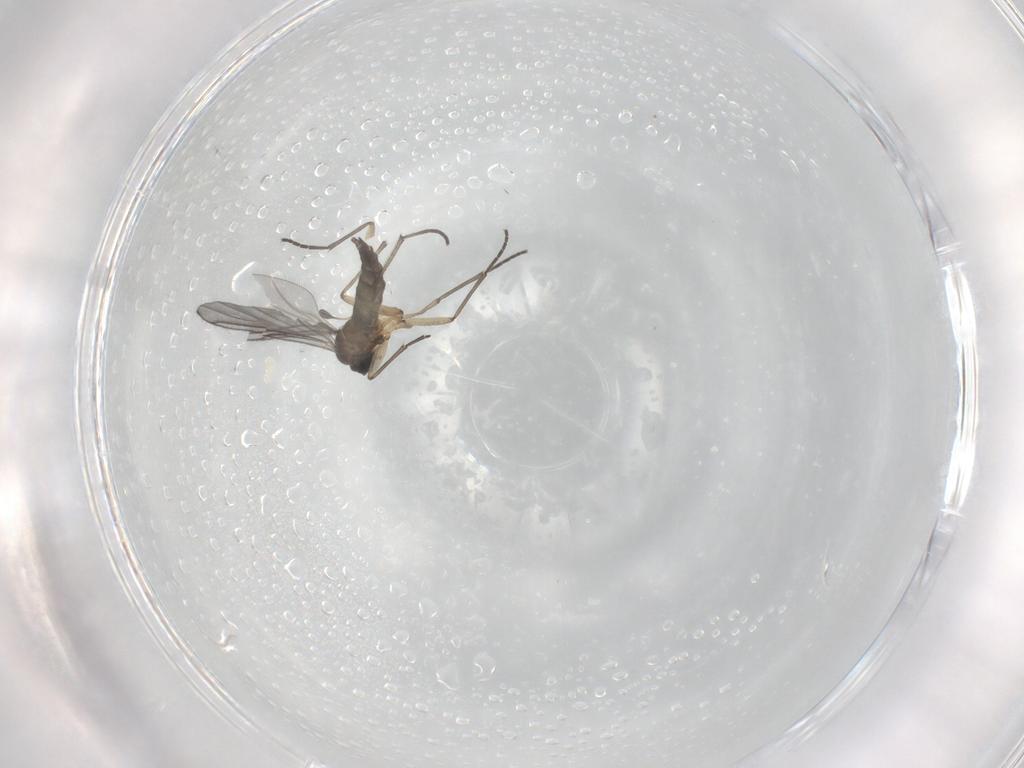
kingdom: Animalia
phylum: Arthropoda
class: Insecta
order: Diptera
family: Sciaridae
